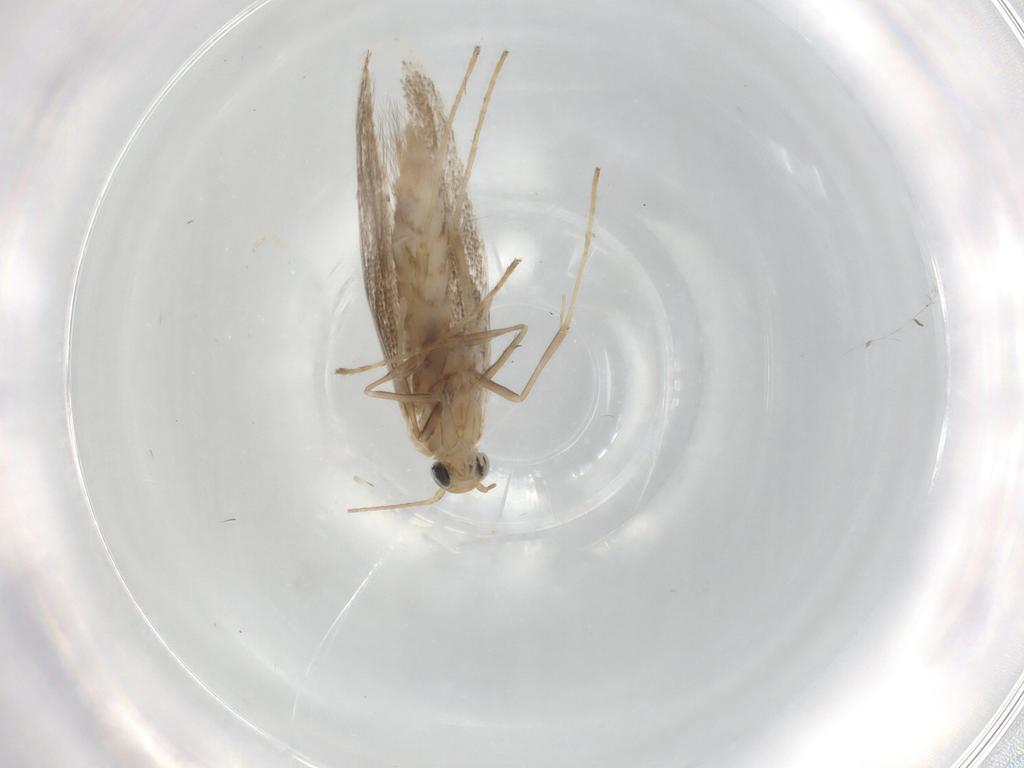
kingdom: Animalia
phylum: Arthropoda
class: Insecta
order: Lepidoptera
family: Gracillariidae
